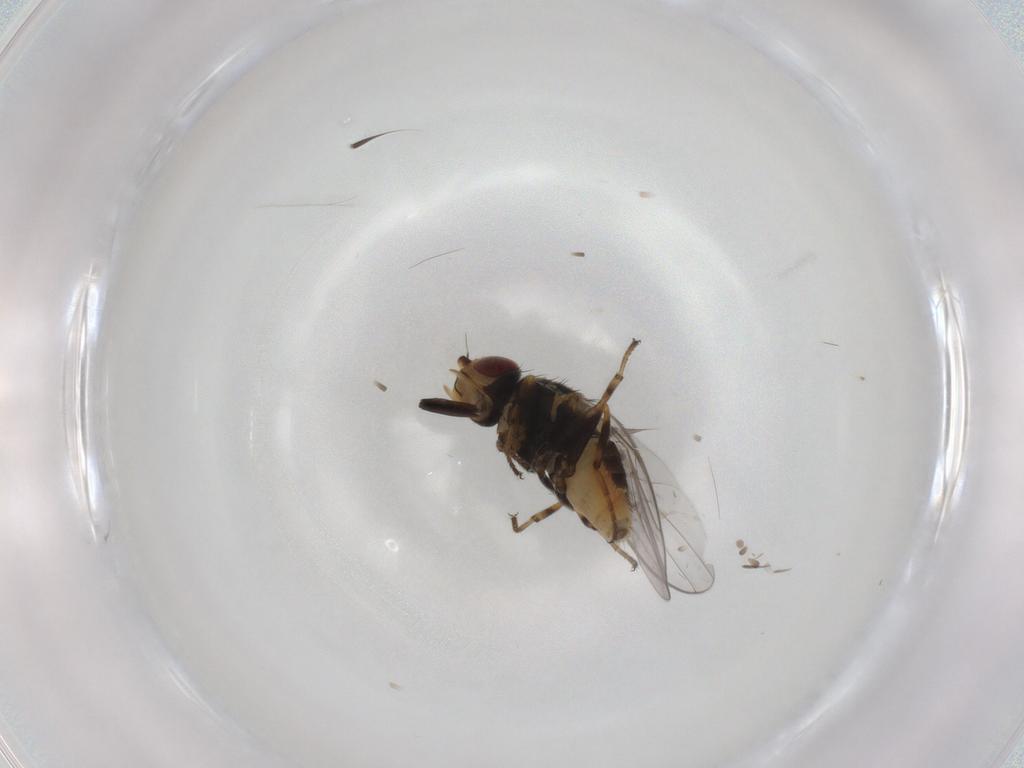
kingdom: Animalia
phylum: Arthropoda
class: Insecta
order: Diptera
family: Chloropidae
